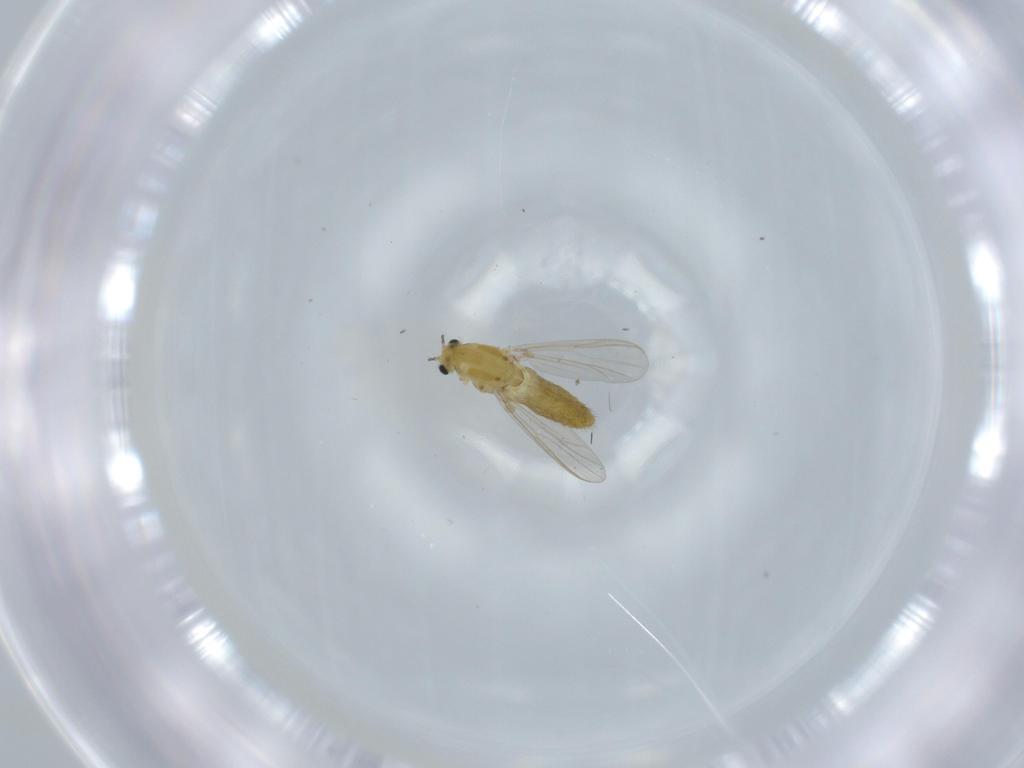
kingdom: Animalia
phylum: Arthropoda
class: Insecta
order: Diptera
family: Chironomidae
